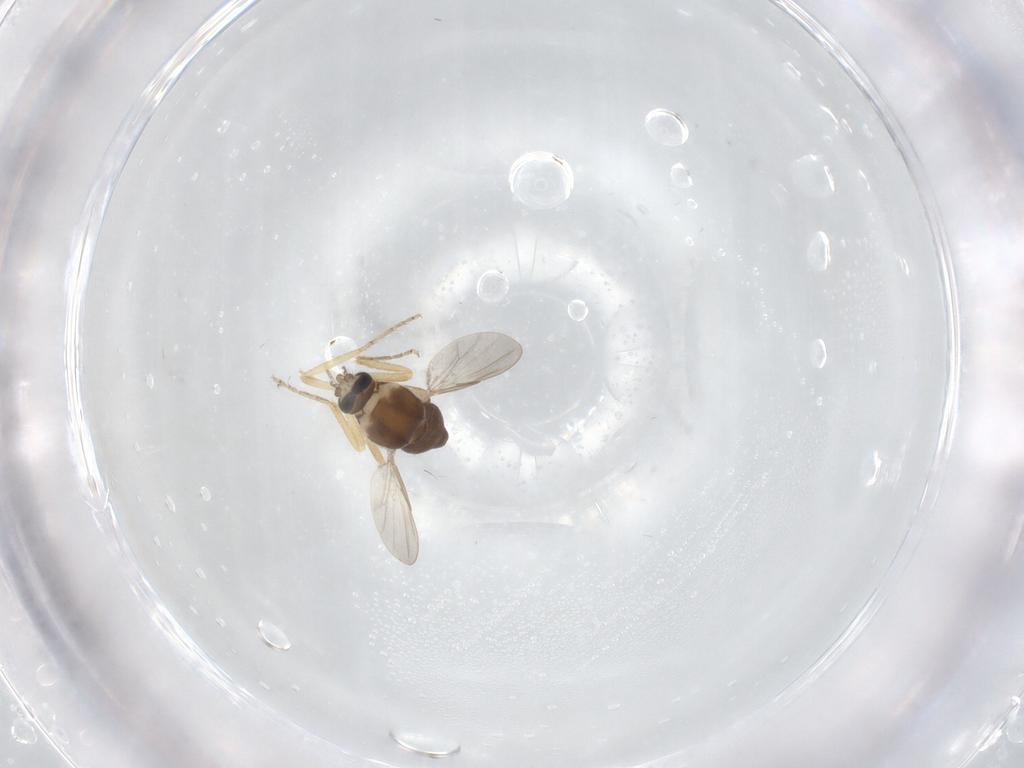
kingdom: Animalia
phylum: Arthropoda
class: Insecta
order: Diptera
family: Ceratopogonidae
